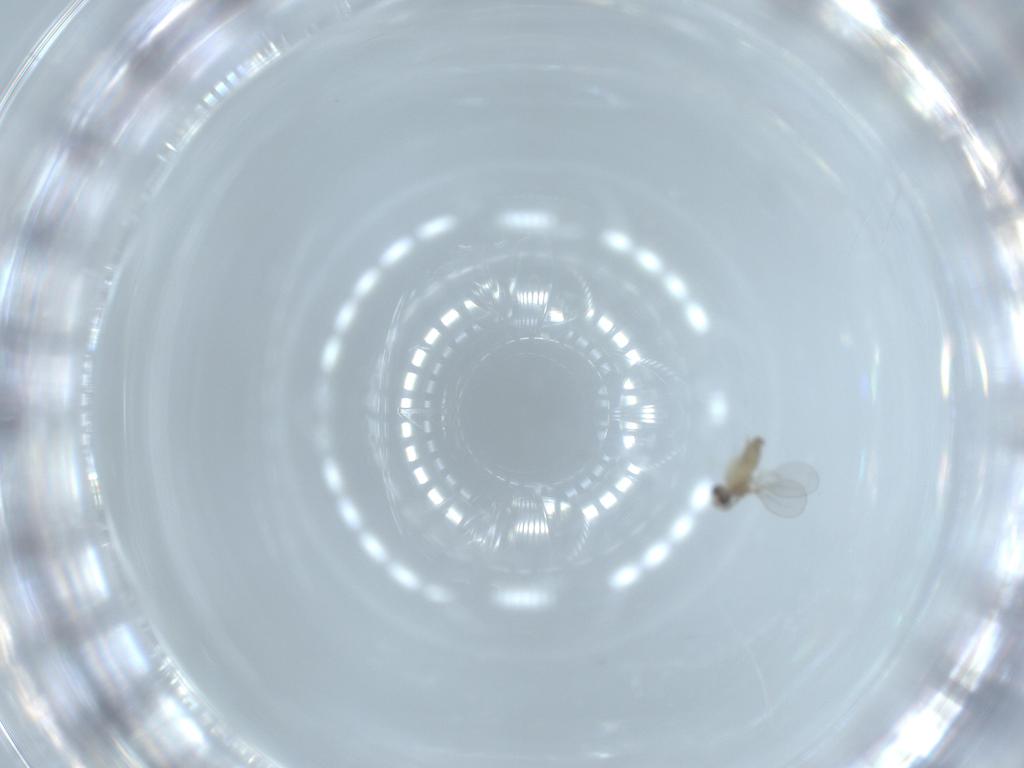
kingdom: Animalia
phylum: Arthropoda
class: Insecta
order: Diptera
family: Cecidomyiidae
